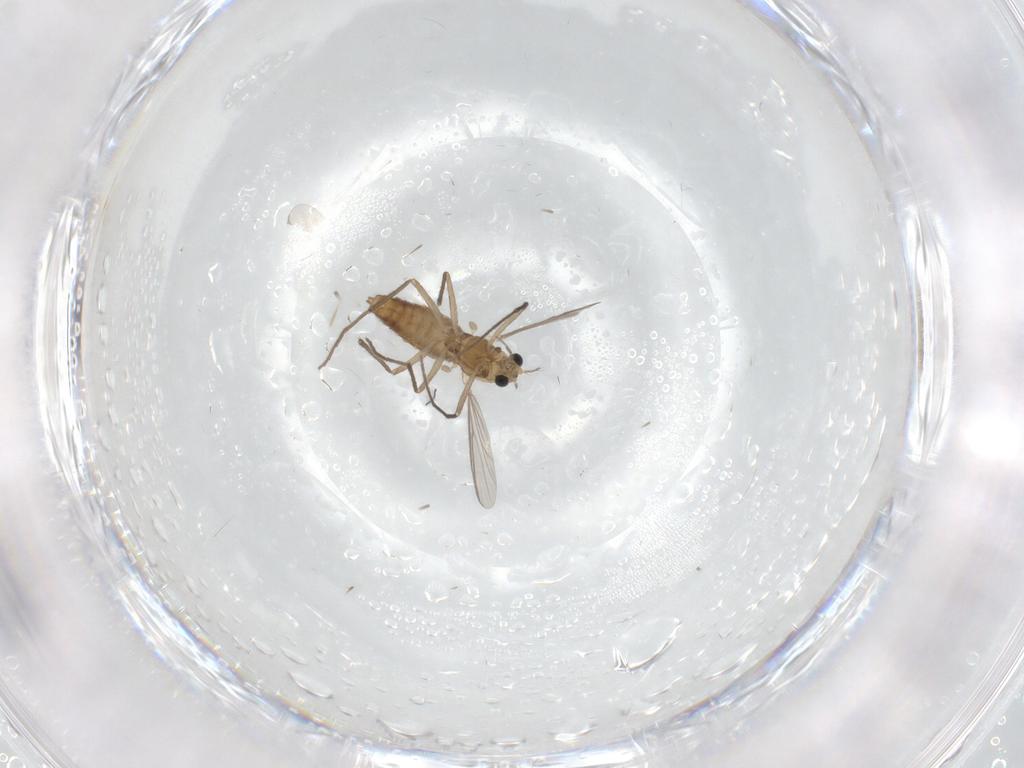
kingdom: Animalia
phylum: Arthropoda
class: Insecta
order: Diptera
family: Chironomidae
